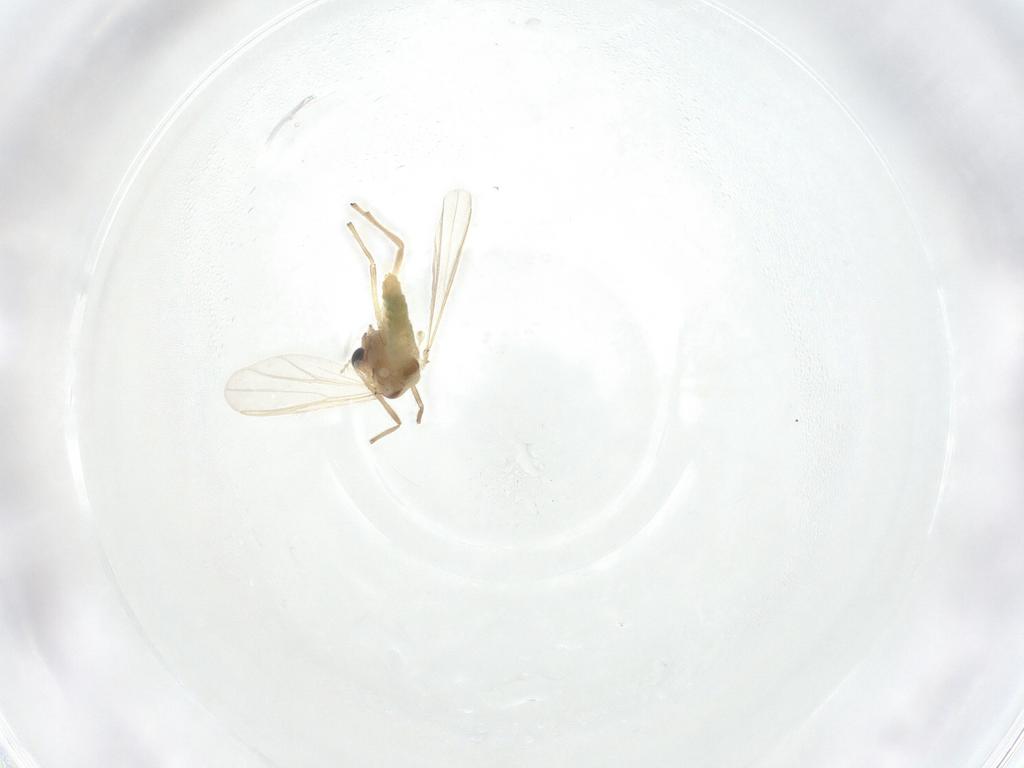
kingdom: Animalia
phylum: Arthropoda
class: Insecta
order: Diptera
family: Chironomidae
